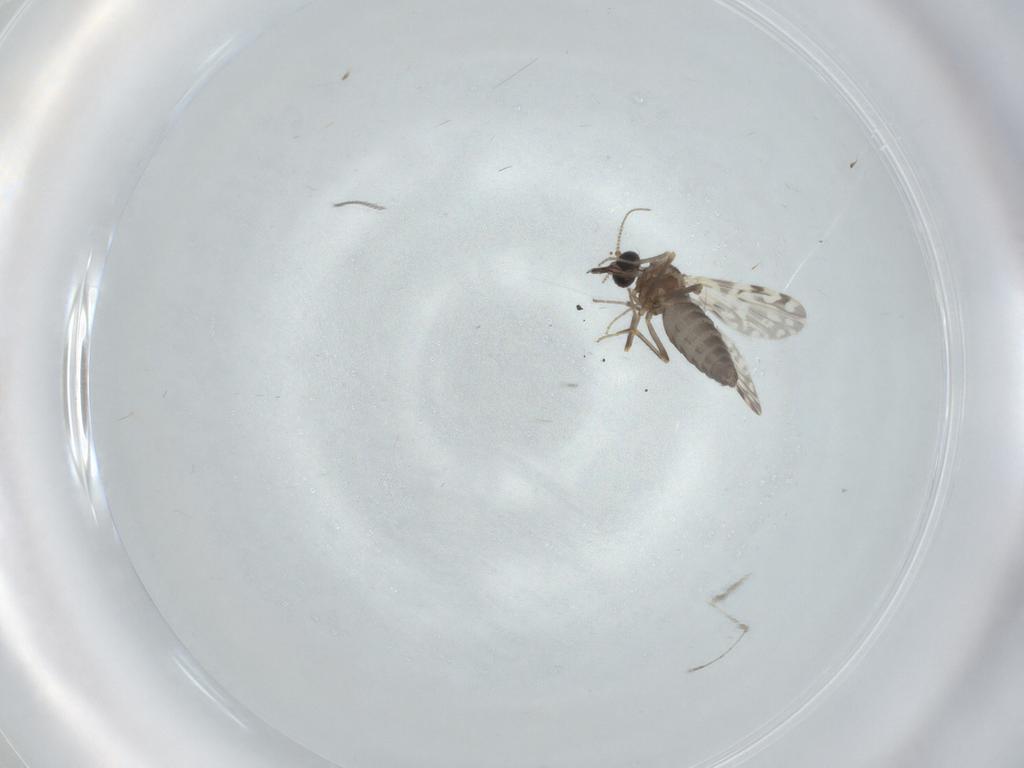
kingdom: Animalia
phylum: Arthropoda
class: Insecta
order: Diptera
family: Ceratopogonidae
